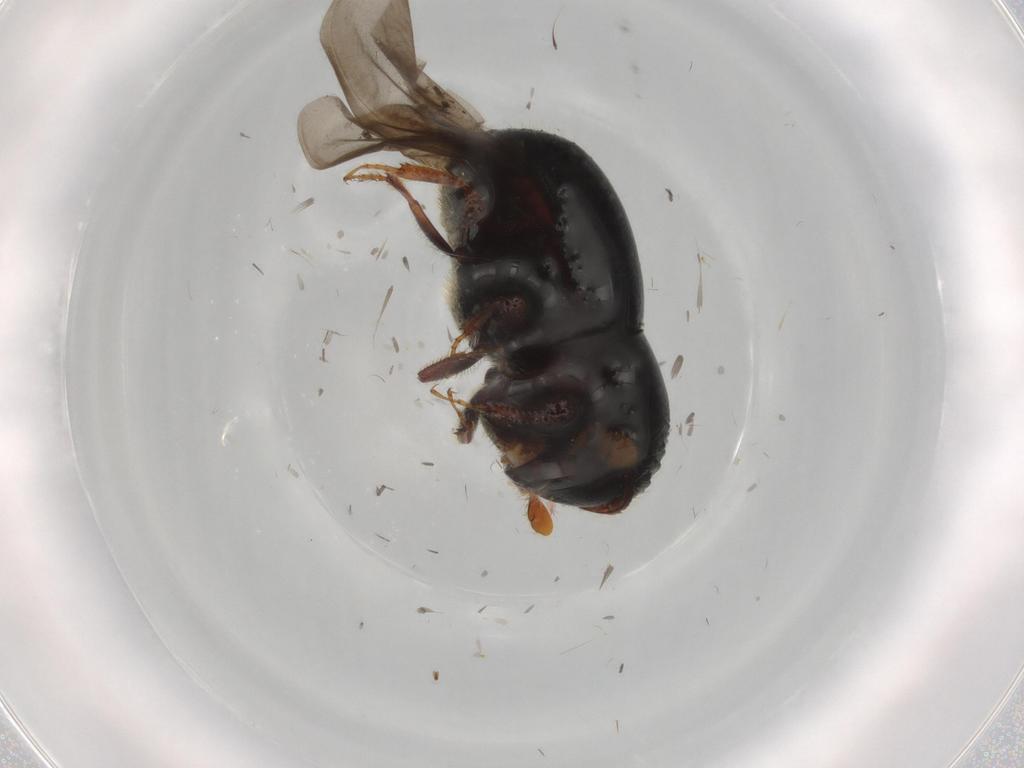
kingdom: Animalia
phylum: Arthropoda
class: Insecta
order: Coleoptera
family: Curculionidae
